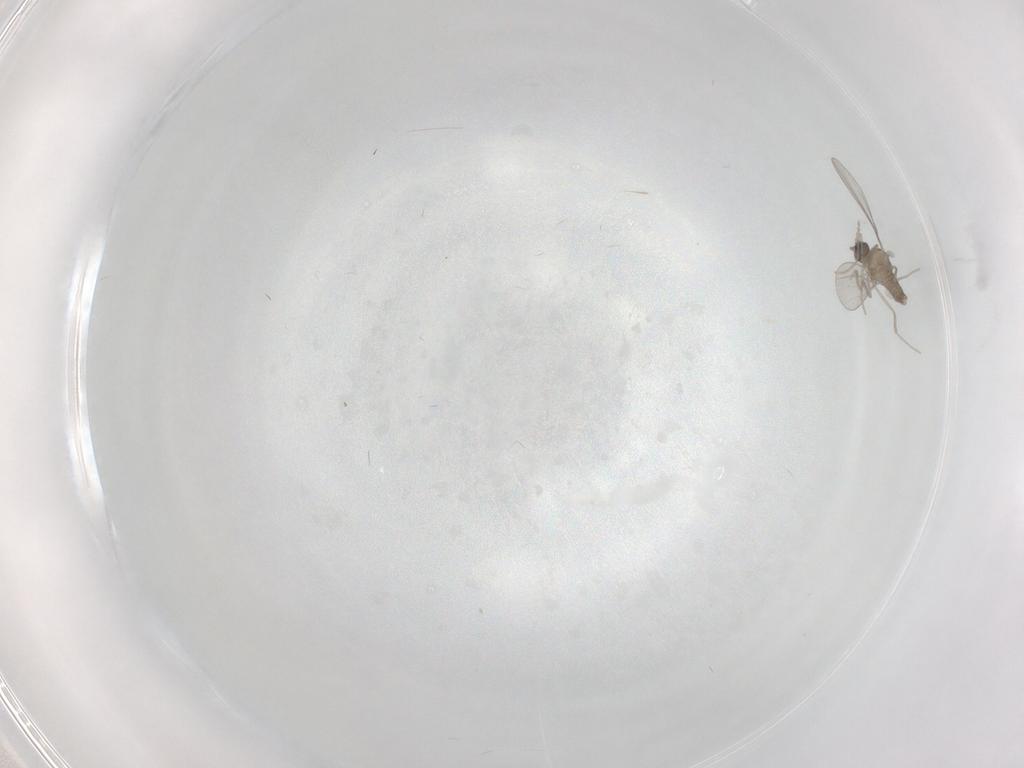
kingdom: Animalia
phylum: Arthropoda
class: Insecta
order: Diptera
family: Cecidomyiidae
